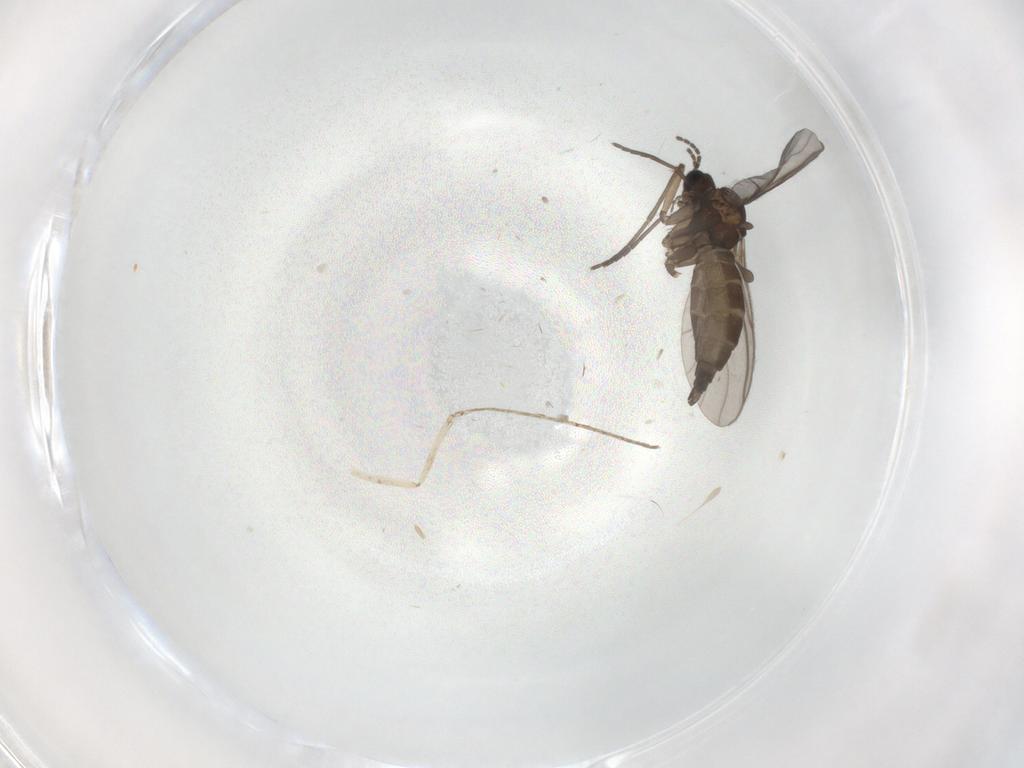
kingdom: Animalia
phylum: Arthropoda
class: Insecta
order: Diptera
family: Sciaridae
